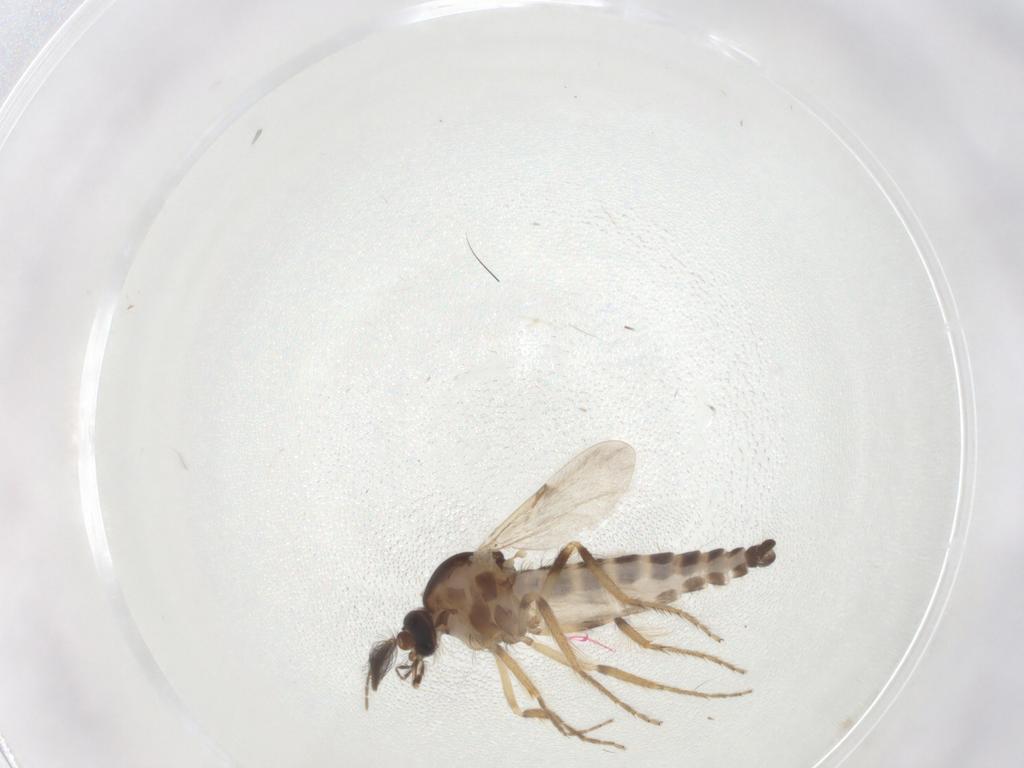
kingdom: Animalia
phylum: Arthropoda
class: Insecta
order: Diptera
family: Ceratopogonidae
